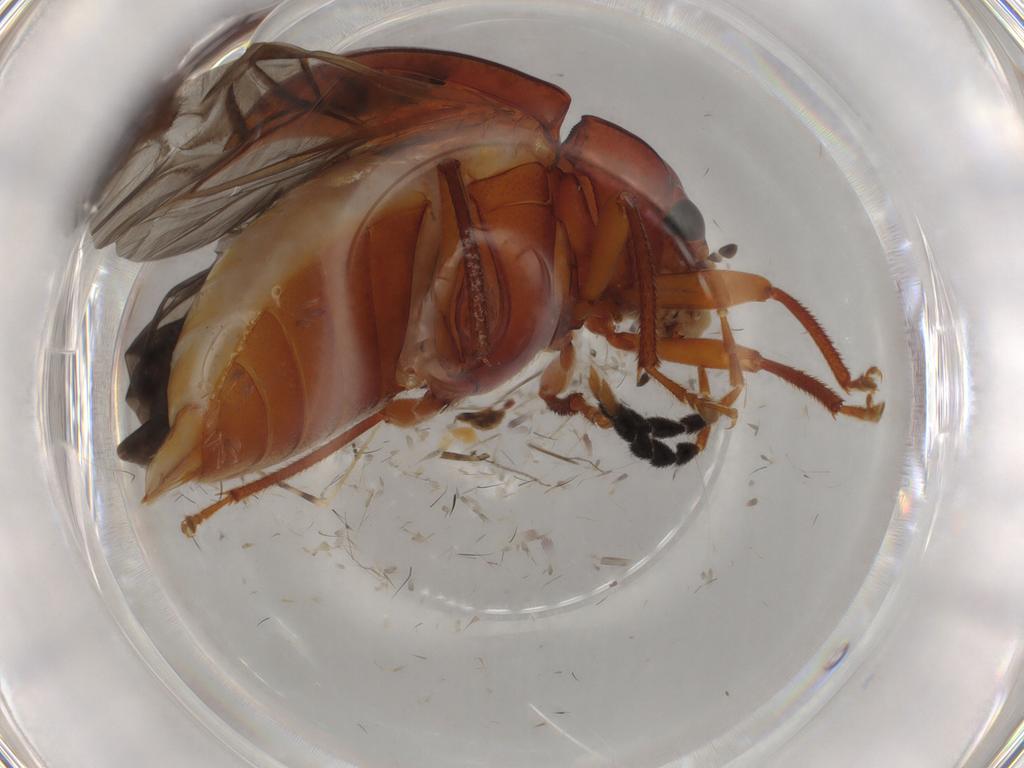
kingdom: Animalia
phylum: Arthropoda
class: Insecta
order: Coleoptera
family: Ptilodactylidae
